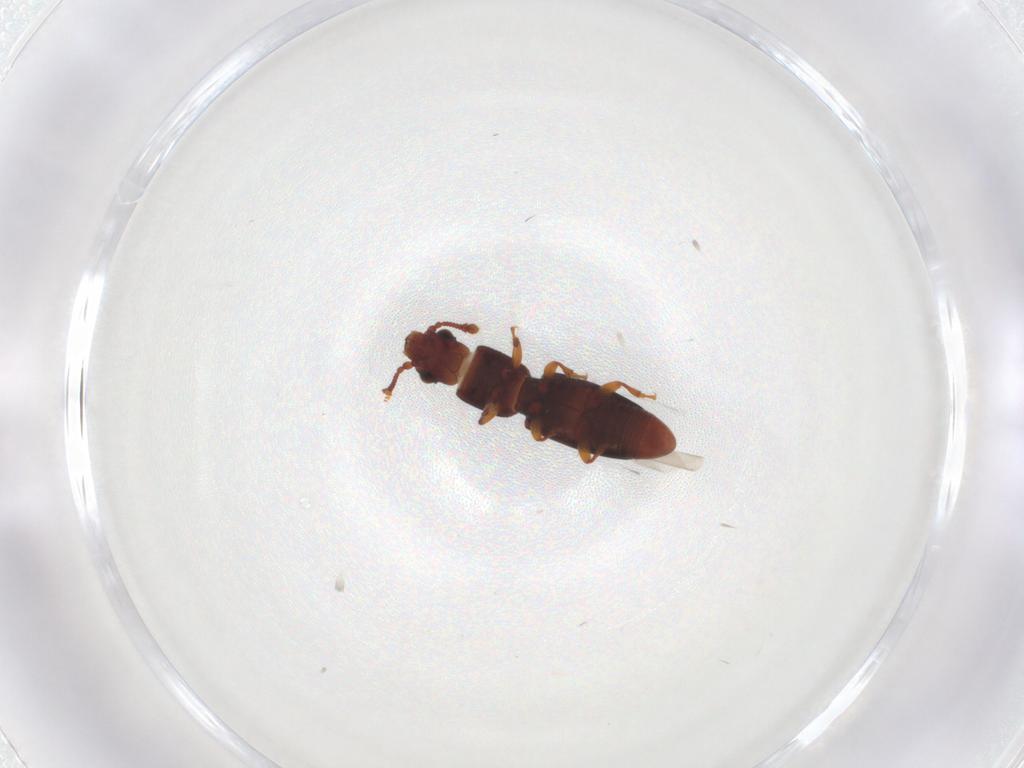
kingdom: Animalia
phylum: Arthropoda
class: Insecta
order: Coleoptera
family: Monotomidae
